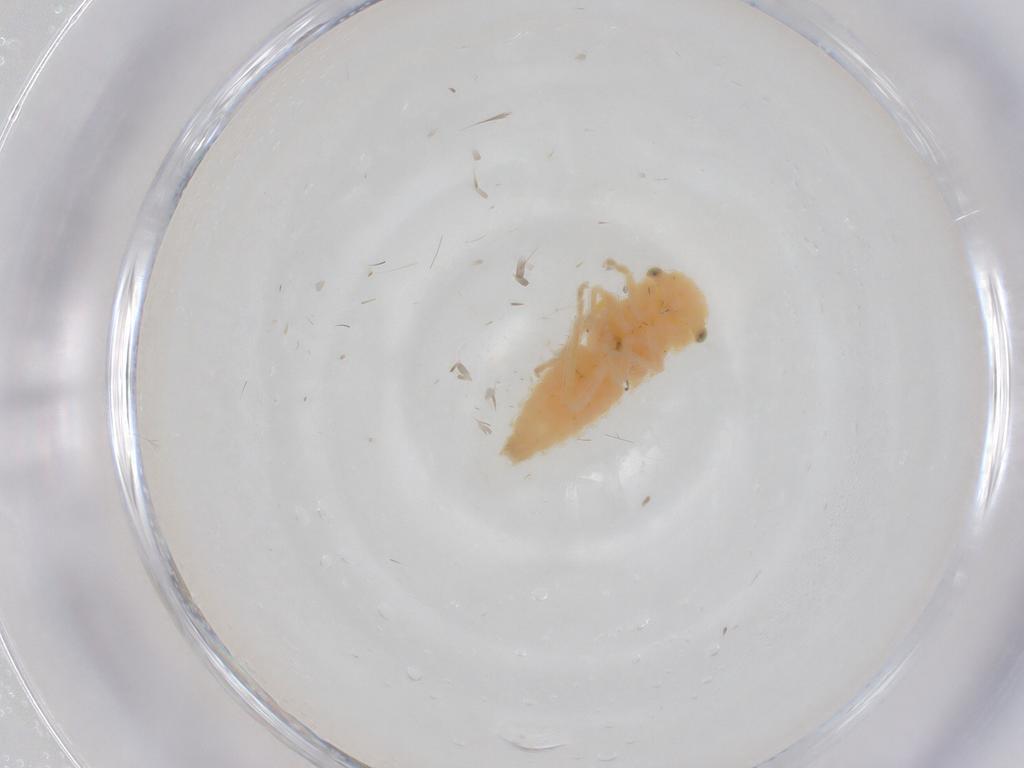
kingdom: Animalia
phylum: Arthropoda
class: Insecta
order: Hemiptera
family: Cicadellidae
